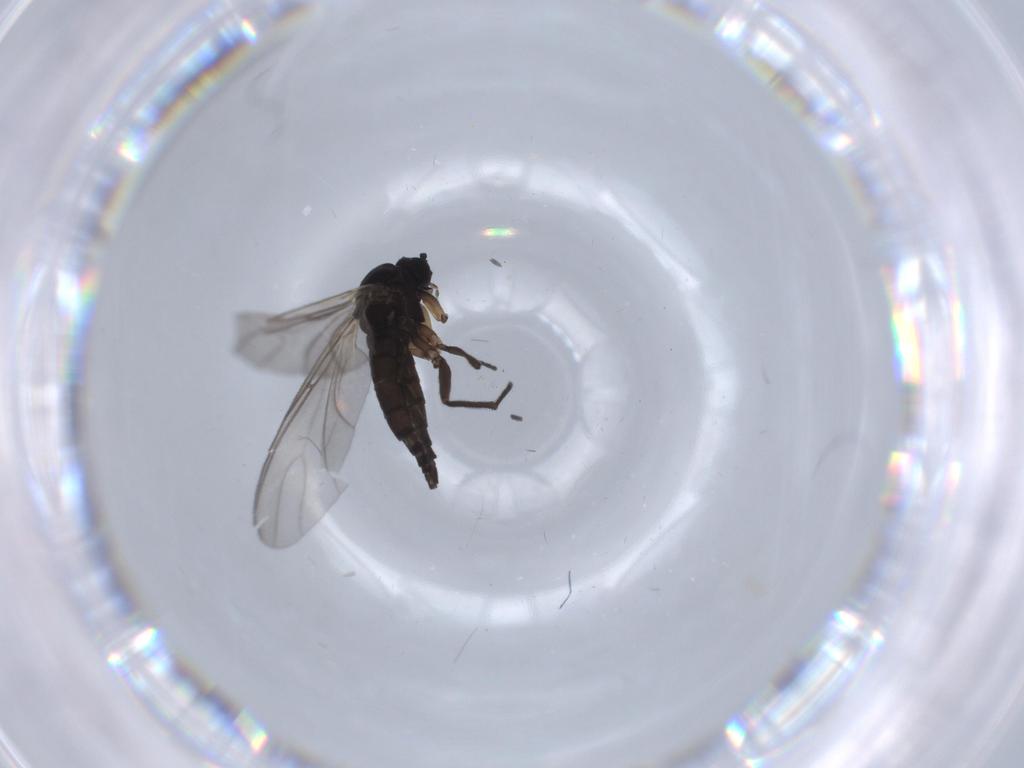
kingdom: Animalia
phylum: Arthropoda
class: Insecta
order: Diptera
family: Sciaridae
